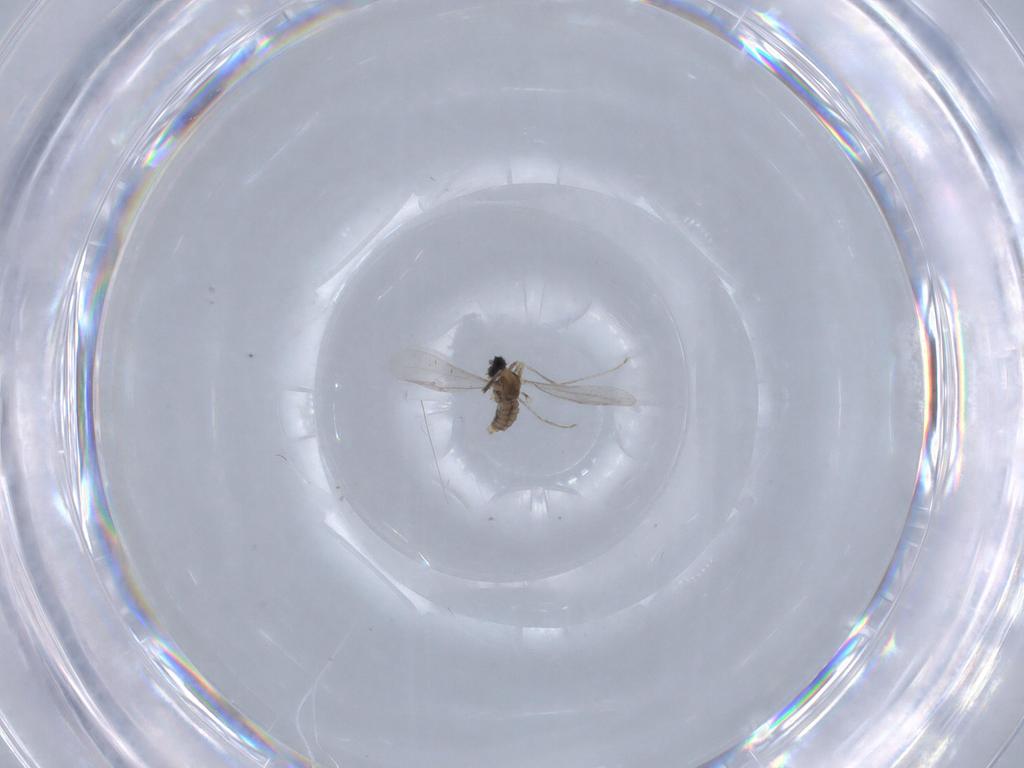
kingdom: Animalia
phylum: Arthropoda
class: Insecta
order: Diptera
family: Cecidomyiidae
